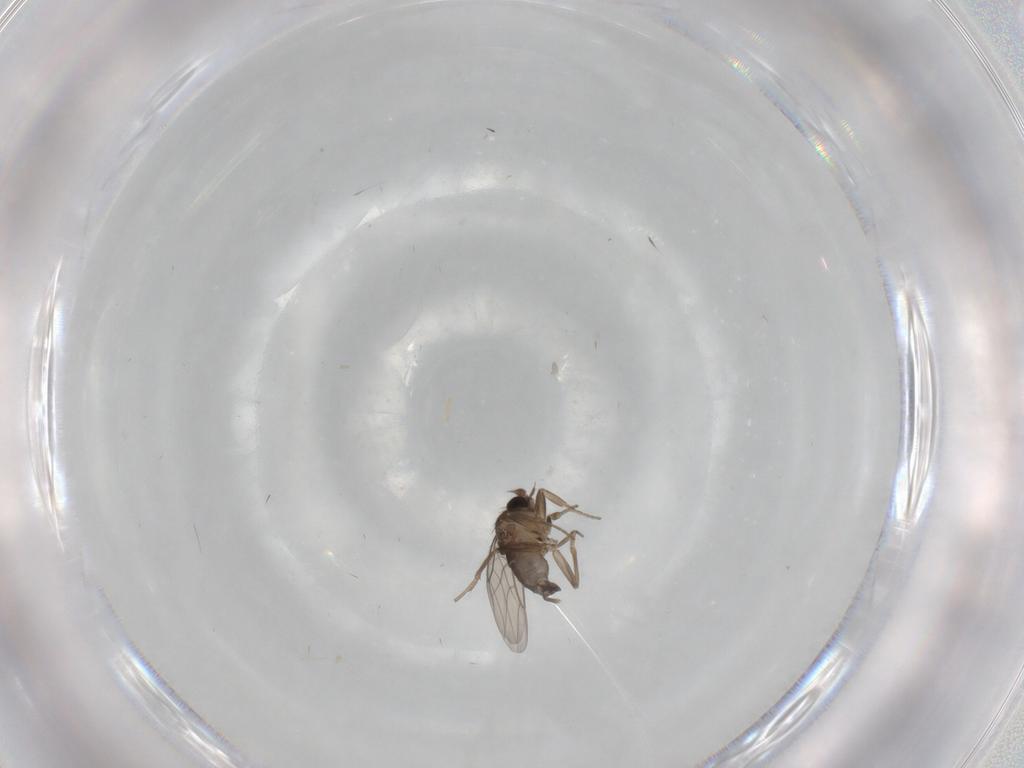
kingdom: Animalia
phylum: Arthropoda
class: Insecta
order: Diptera
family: Phoridae
